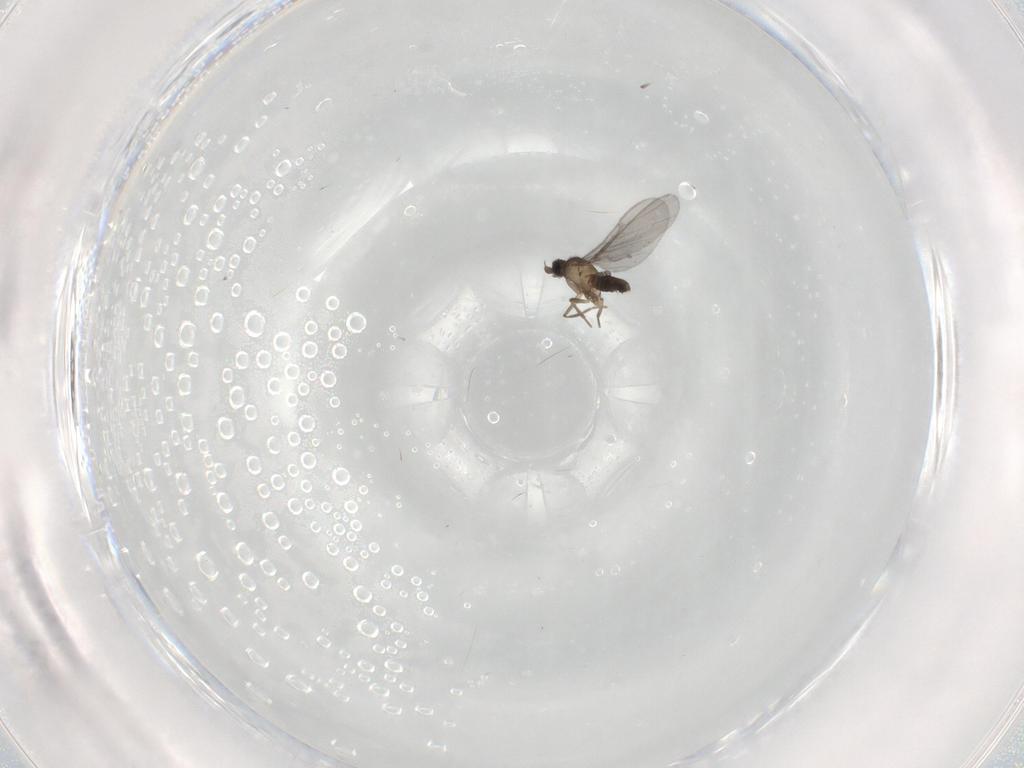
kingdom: Animalia
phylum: Arthropoda
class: Insecta
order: Diptera
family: Phoridae
